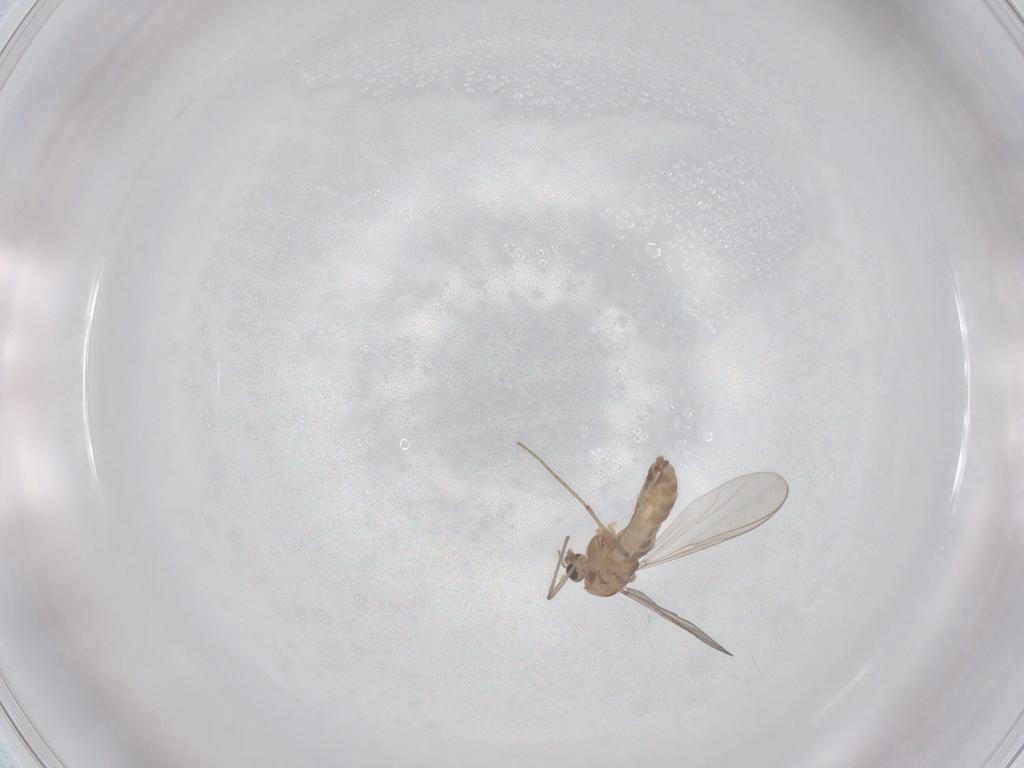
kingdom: Animalia
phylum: Arthropoda
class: Insecta
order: Diptera
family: Chironomidae
